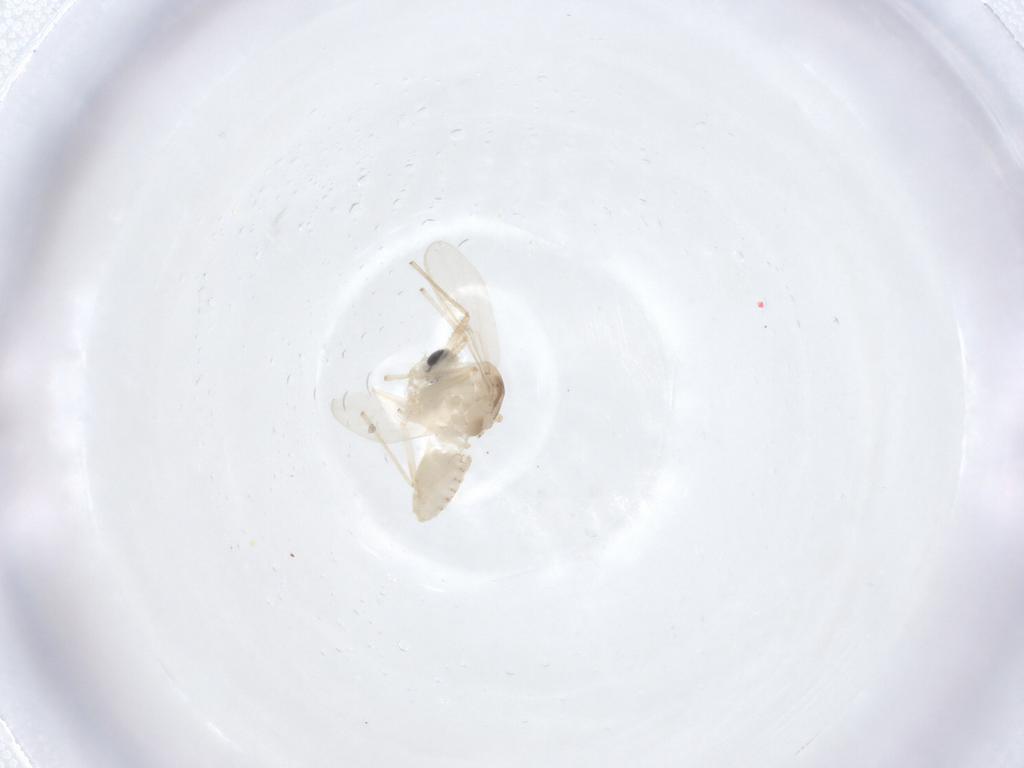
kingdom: Animalia
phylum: Arthropoda
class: Insecta
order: Diptera
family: Chironomidae
